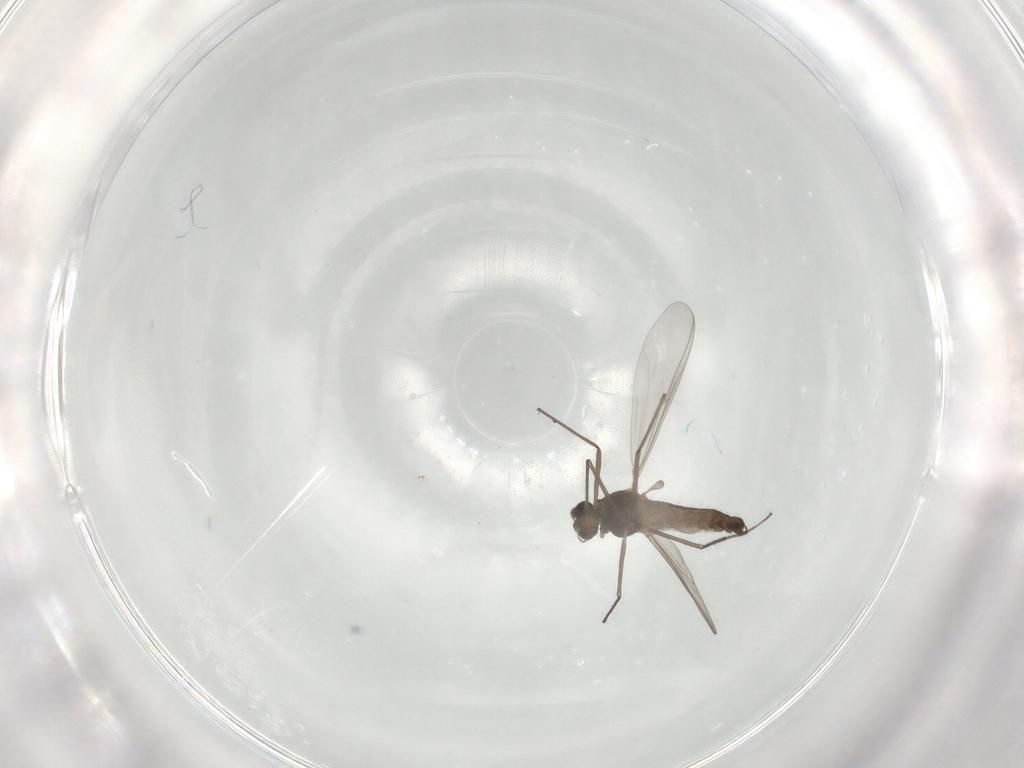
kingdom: Animalia
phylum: Arthropoda
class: Insecta
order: Diptera
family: Chironomidae
